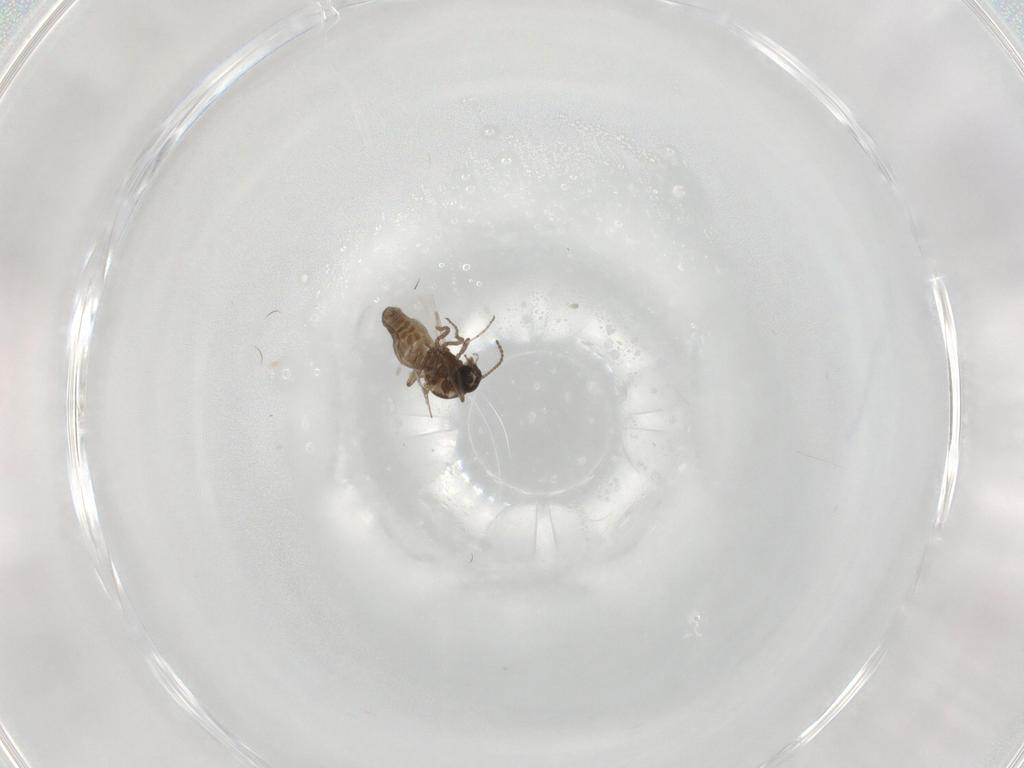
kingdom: Animalia
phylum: Arthropoda
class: Insecta
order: Diptera
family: Ceratopogonidae
